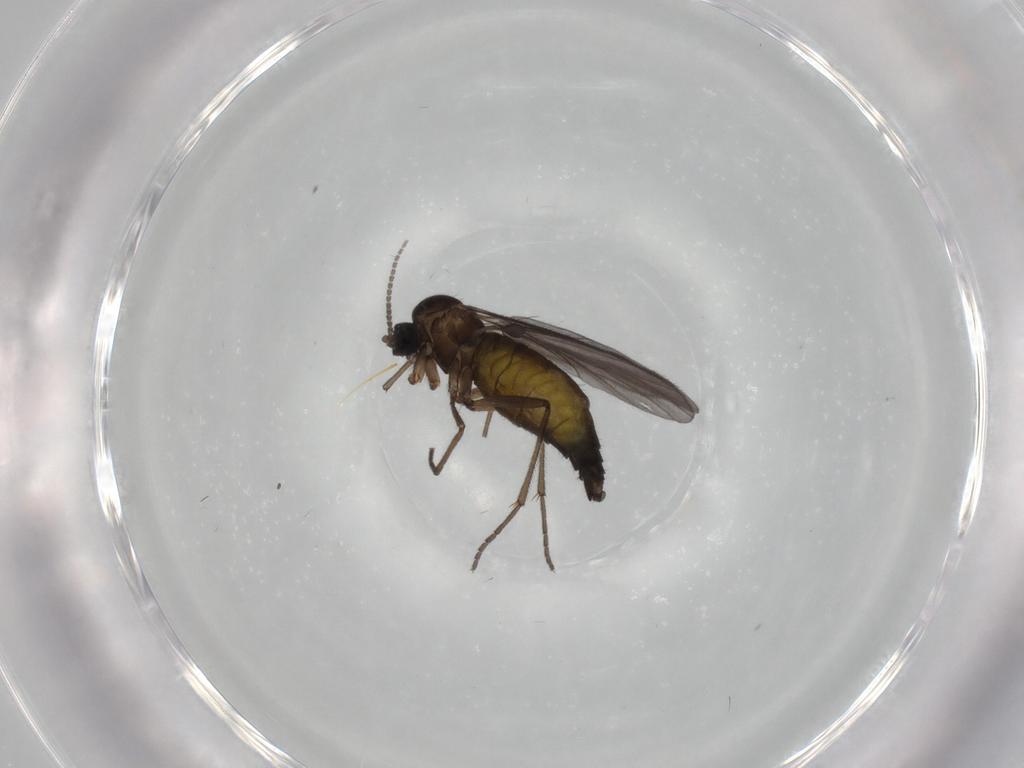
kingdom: Animalia
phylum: Arthropoda
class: Insecta
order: Diptera
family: Sciaridae
